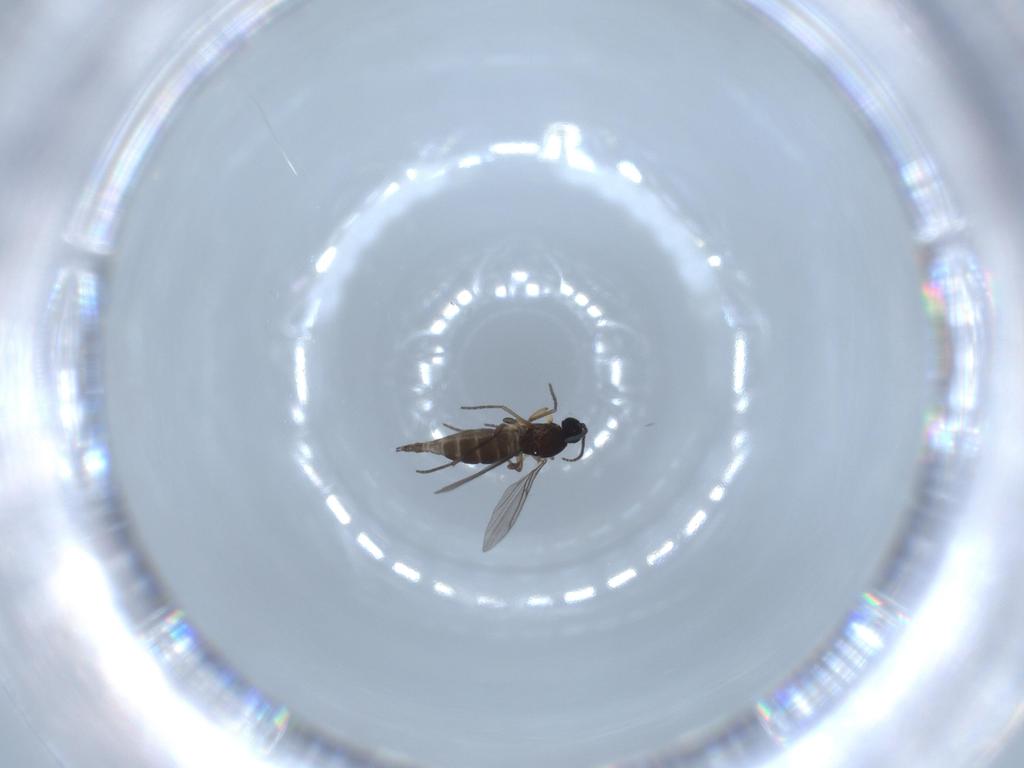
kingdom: Animalia
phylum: Arthropoda
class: Insecta
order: Diptera
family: Sciaridae
